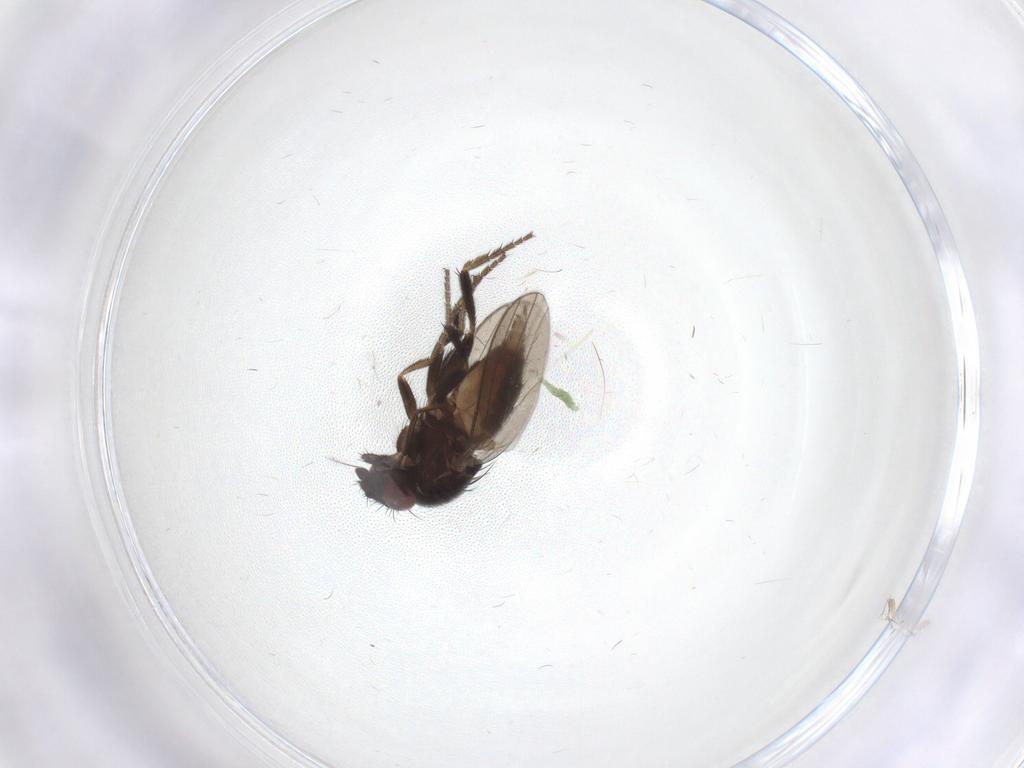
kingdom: Animalia
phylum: Arthropoda
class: Insecta
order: Diptera
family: Milichiidae
